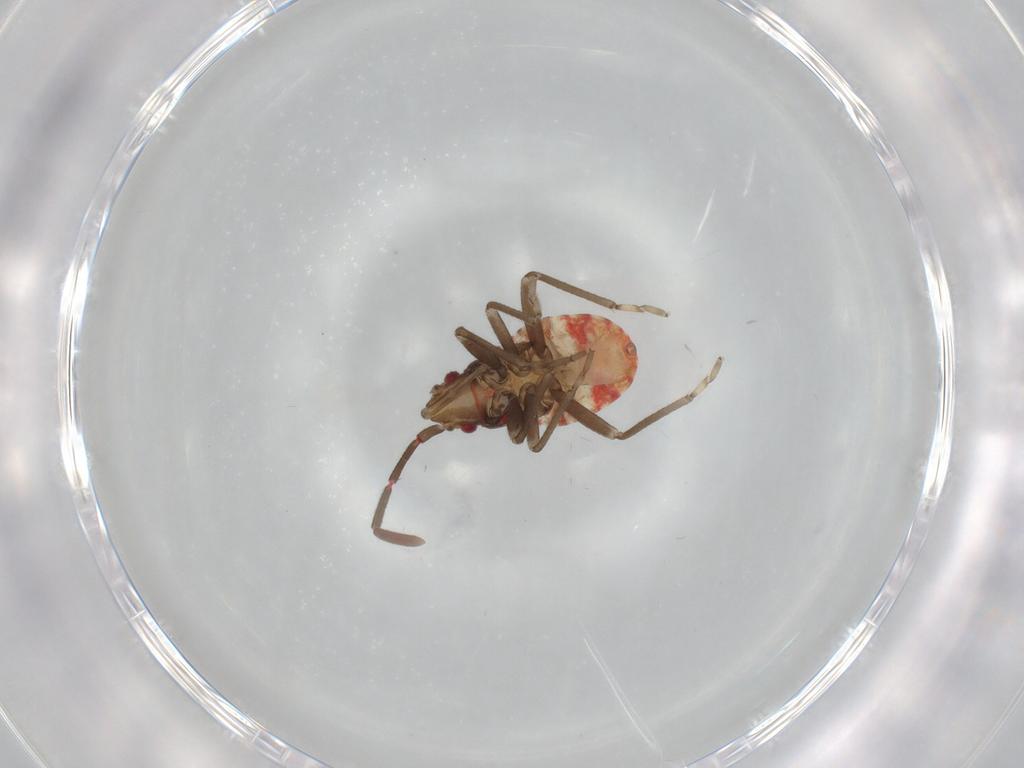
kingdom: Animalia
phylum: Arthropoda
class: Insecta
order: Hemiptera
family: Rhyparochromidae
